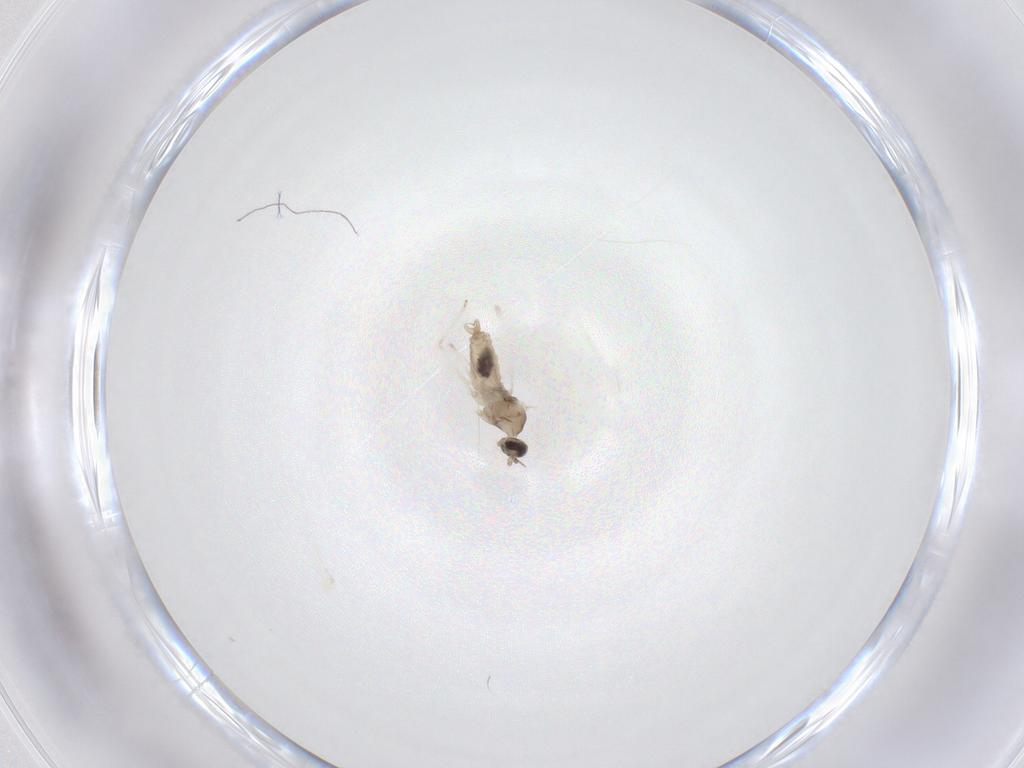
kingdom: Animalia
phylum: Arthropoda
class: Insecta
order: Diptera
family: Cecidomyiidae
